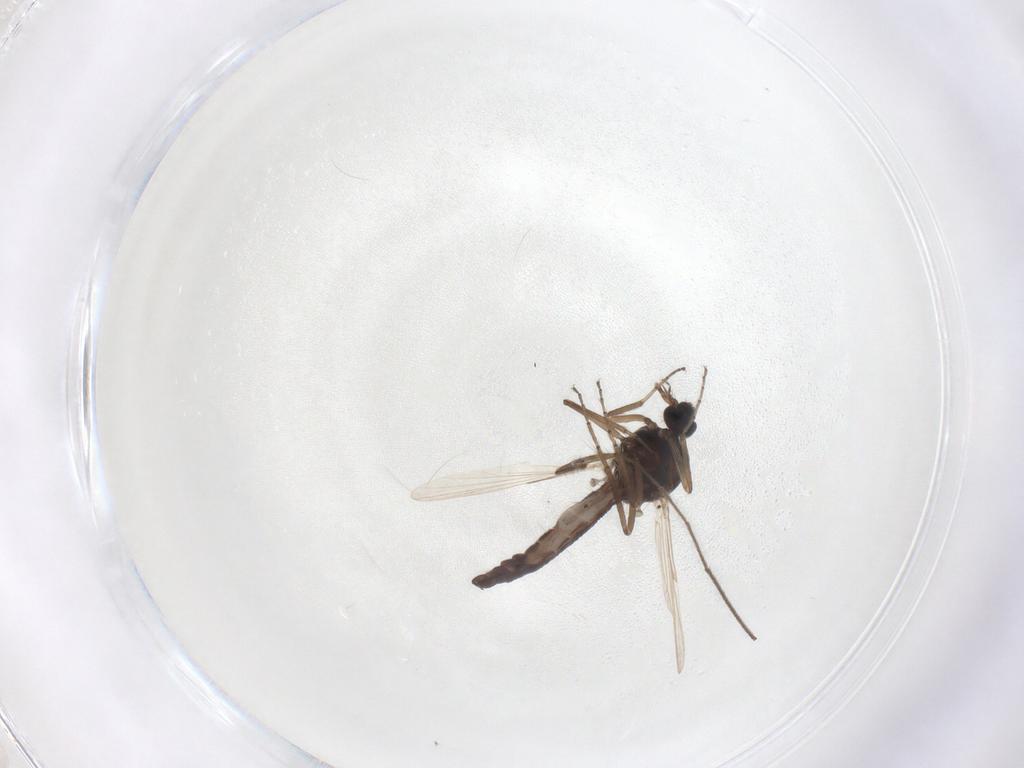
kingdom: Animalia
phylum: Arthropoda
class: Insecta
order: Diptera
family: Ceratopogonidae
